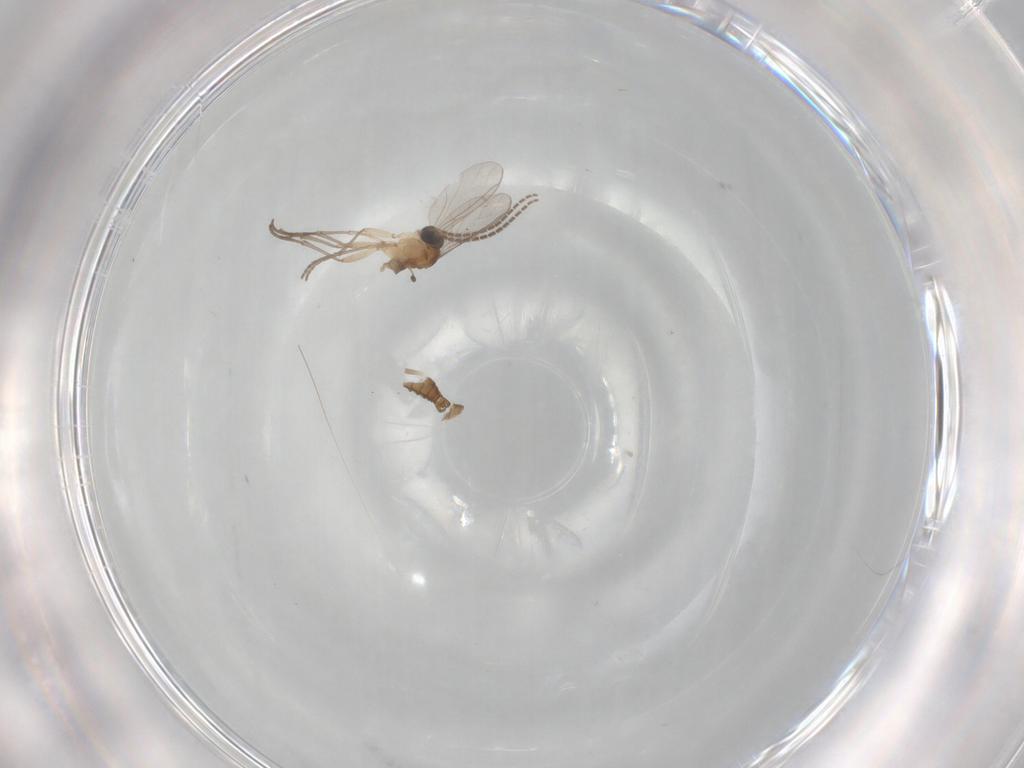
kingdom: Animalia
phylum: Arthropoda
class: Insecta
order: Diptera
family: Sciaridae
